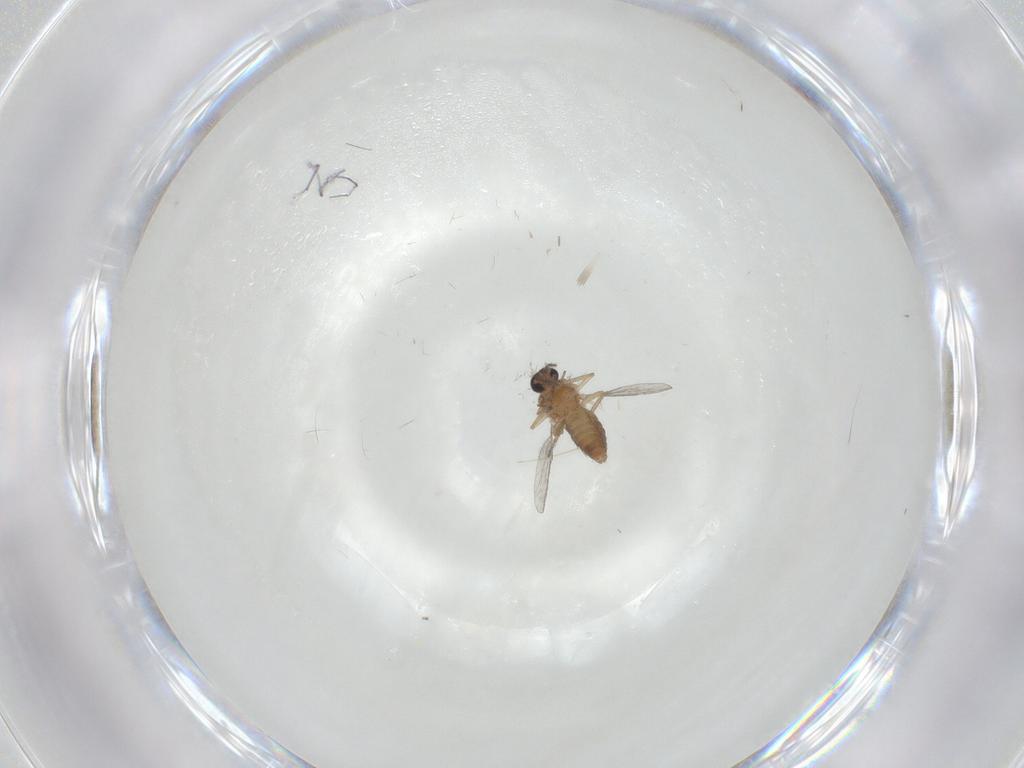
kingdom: Animalia
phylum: Arthropoda
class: Insecta
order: Diptera
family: Ceratopogonidae
